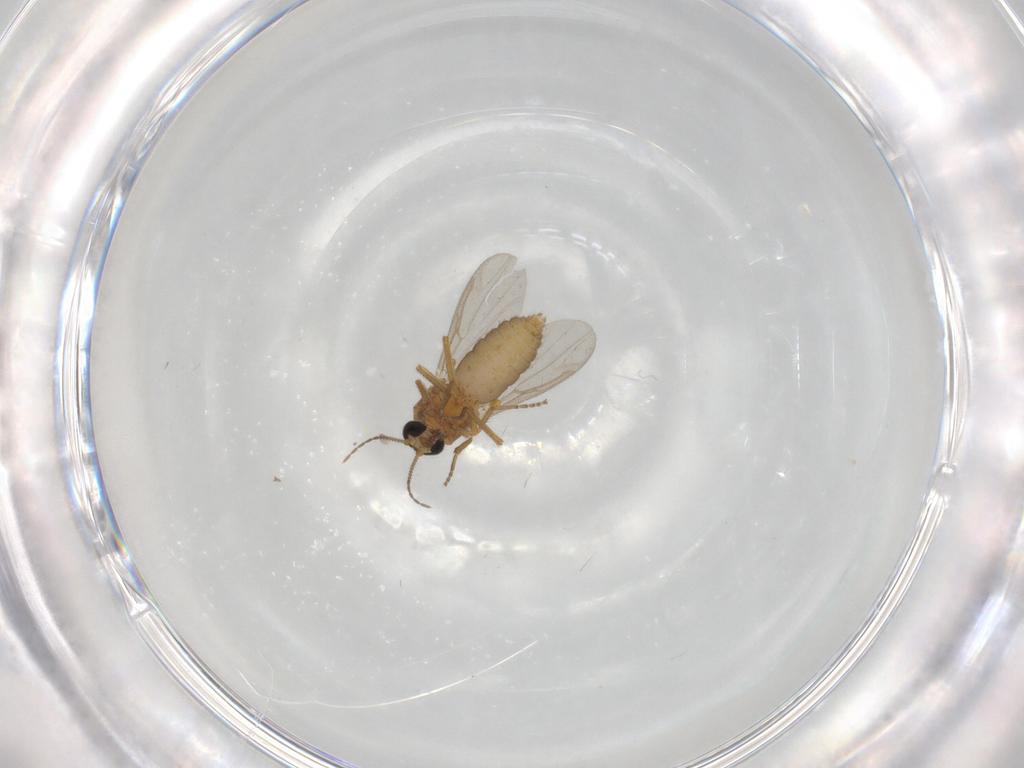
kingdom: Animalia
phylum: Arthropoda
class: Insecta
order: Diptera
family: Ceratopogonidae
